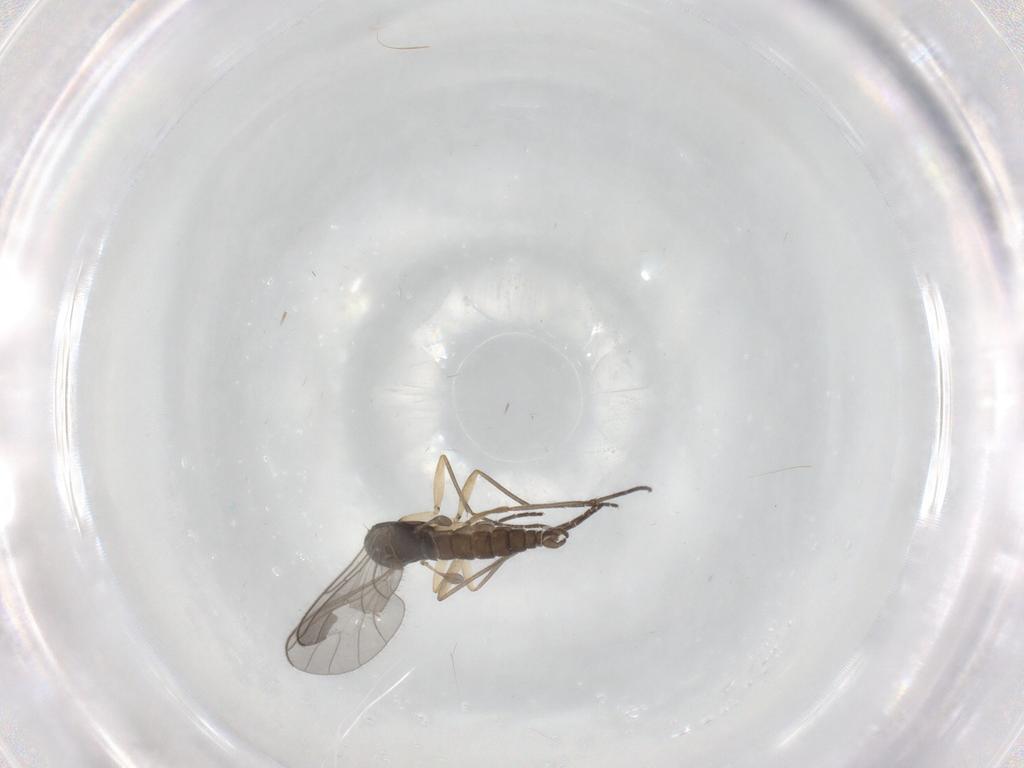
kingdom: Animalia
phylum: Arthropoda
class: Insecta
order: Diptera
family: Sciaridae
